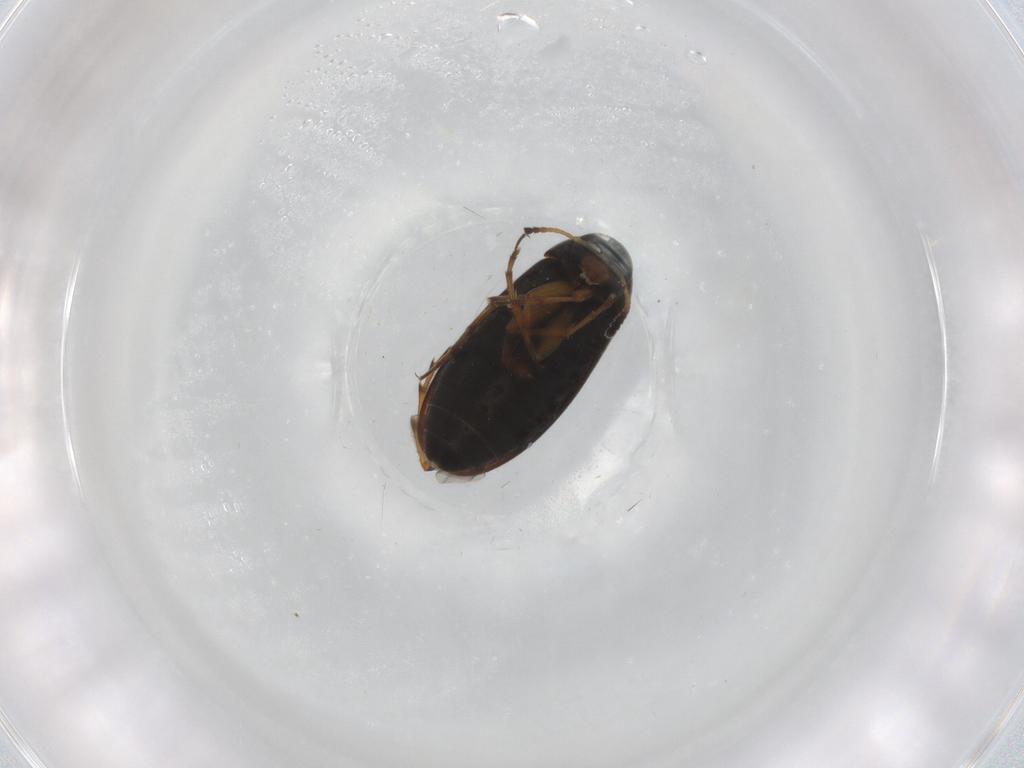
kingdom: Animalia
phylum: Arthropoda
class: Insecta
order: Coleoptera
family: Scraptiidae
